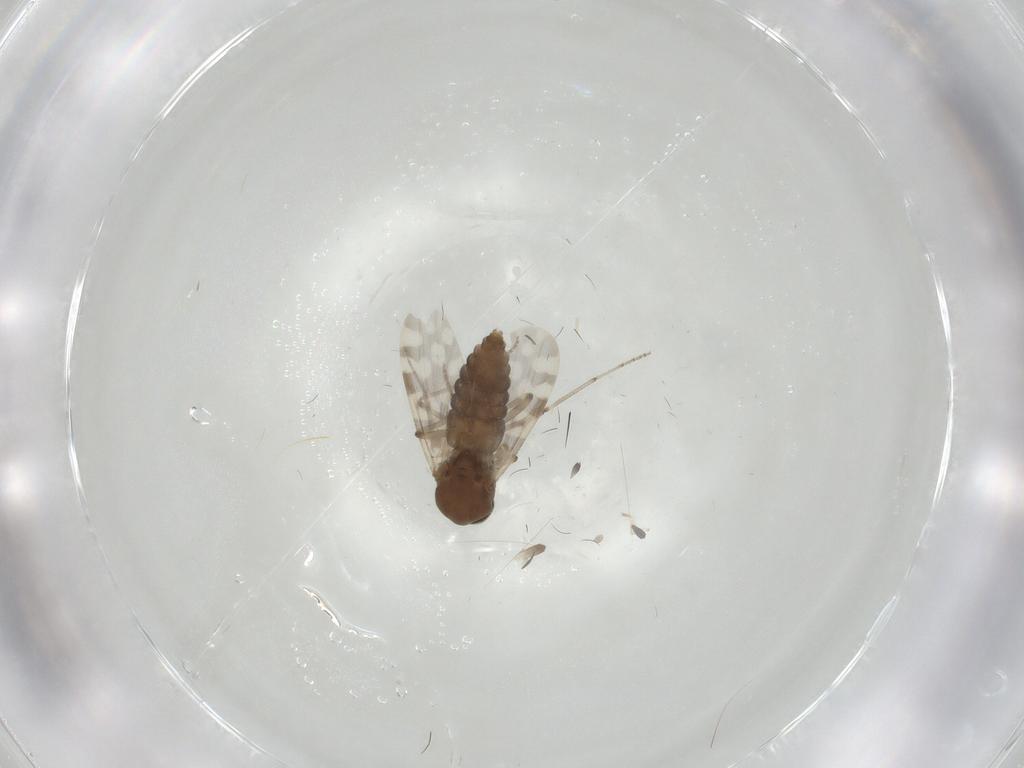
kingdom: Animalia
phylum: Arthropoda
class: Insecta
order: Diptera
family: Chironomidae
